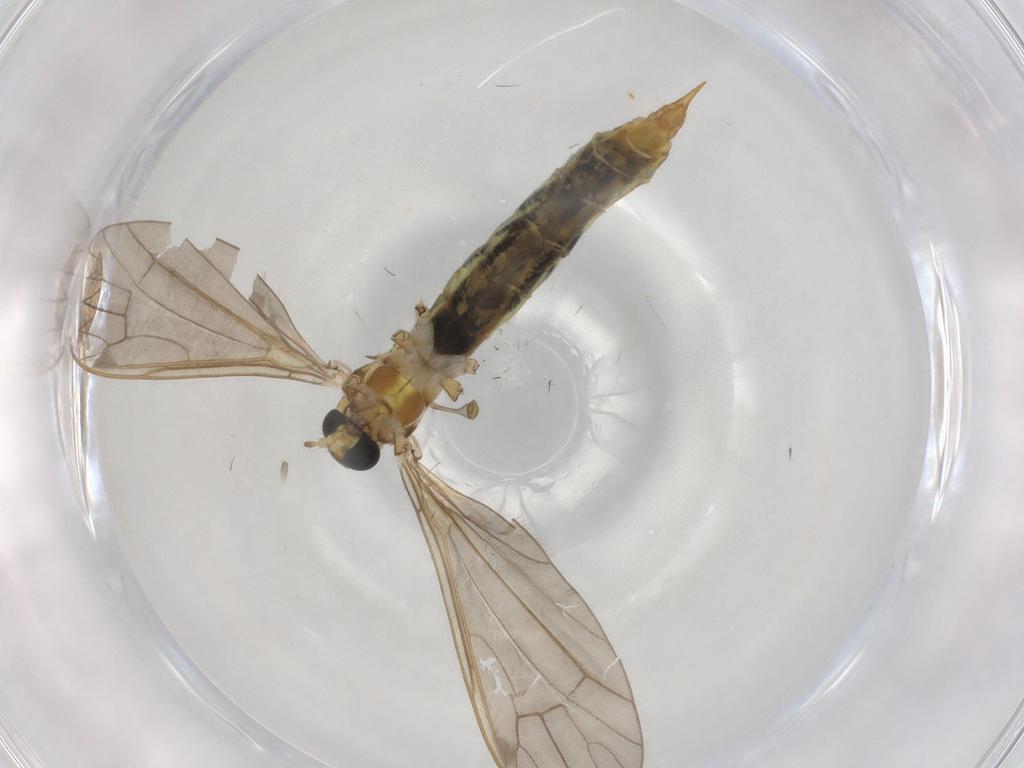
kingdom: Animalia
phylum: Arthropoda
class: Insecta
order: Diptera
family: Limoniidae
